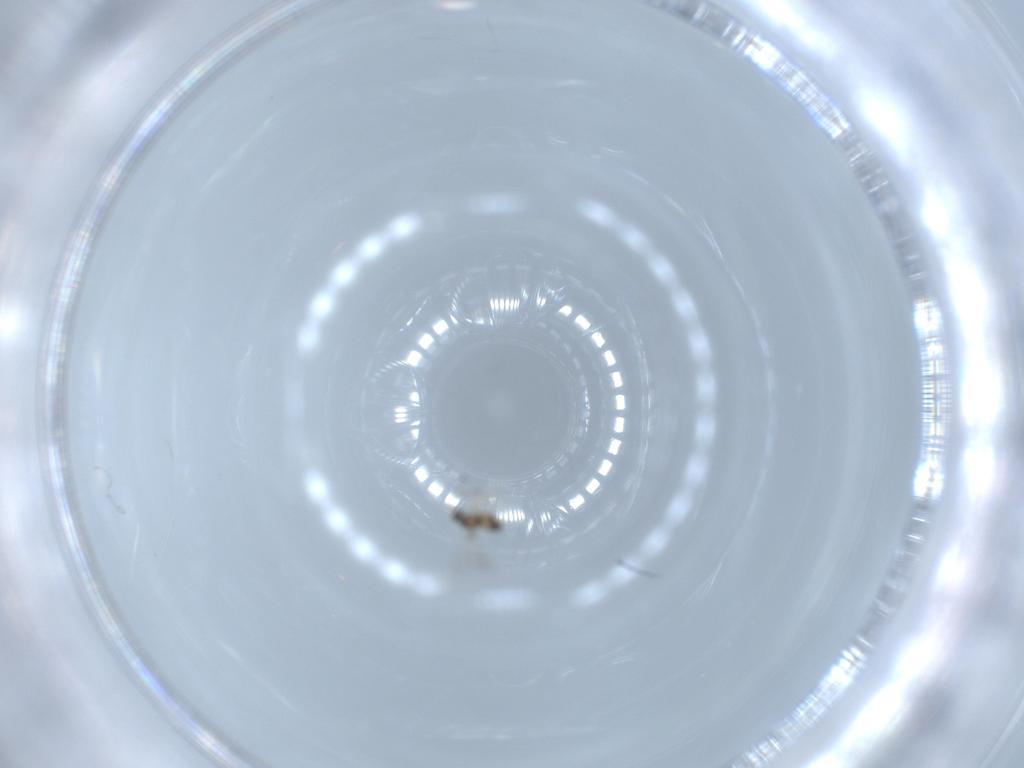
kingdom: Animalia
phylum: Arthropoda
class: Insecta
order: Hymenoptera
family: Mymaridae
